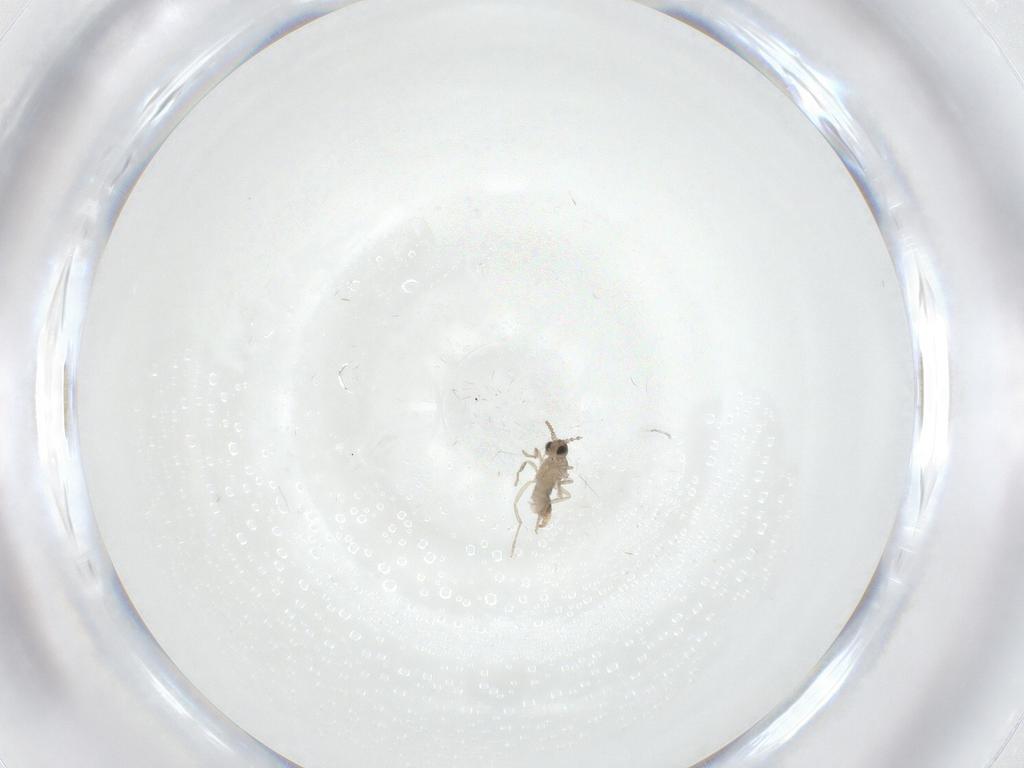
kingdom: Animalia
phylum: Arthropoda
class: Insecta
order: Diptera
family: Cecidomyiidae
